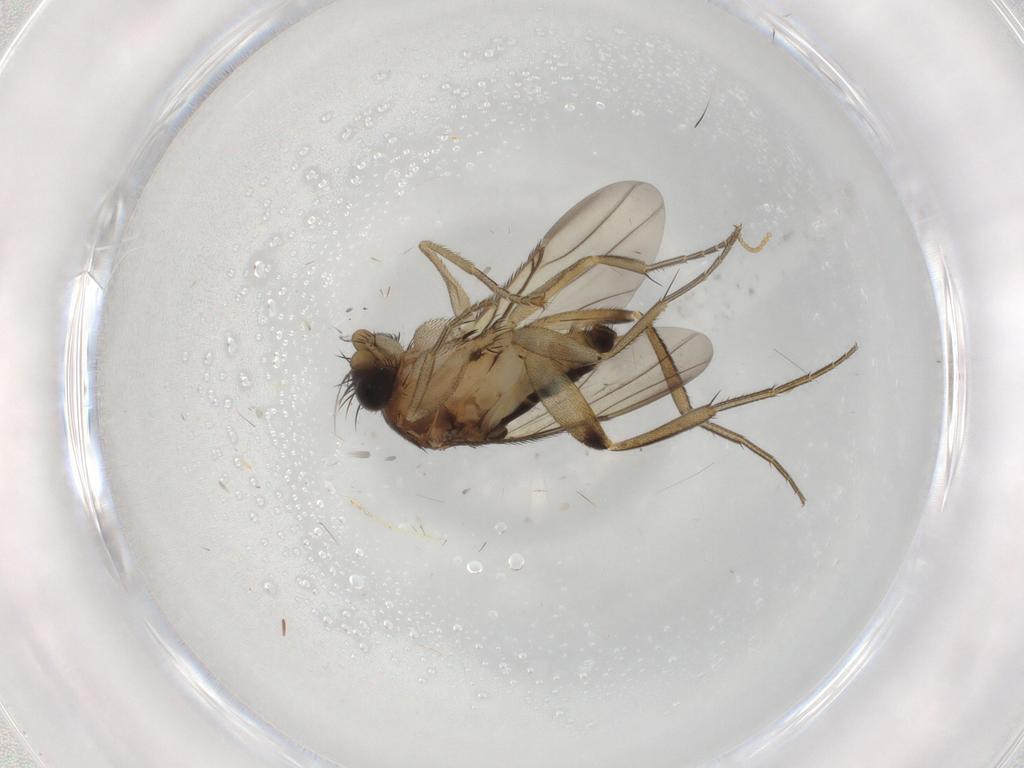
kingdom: Animalia
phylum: Arthropoda
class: Insecta
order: Diptera
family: Phoridae
